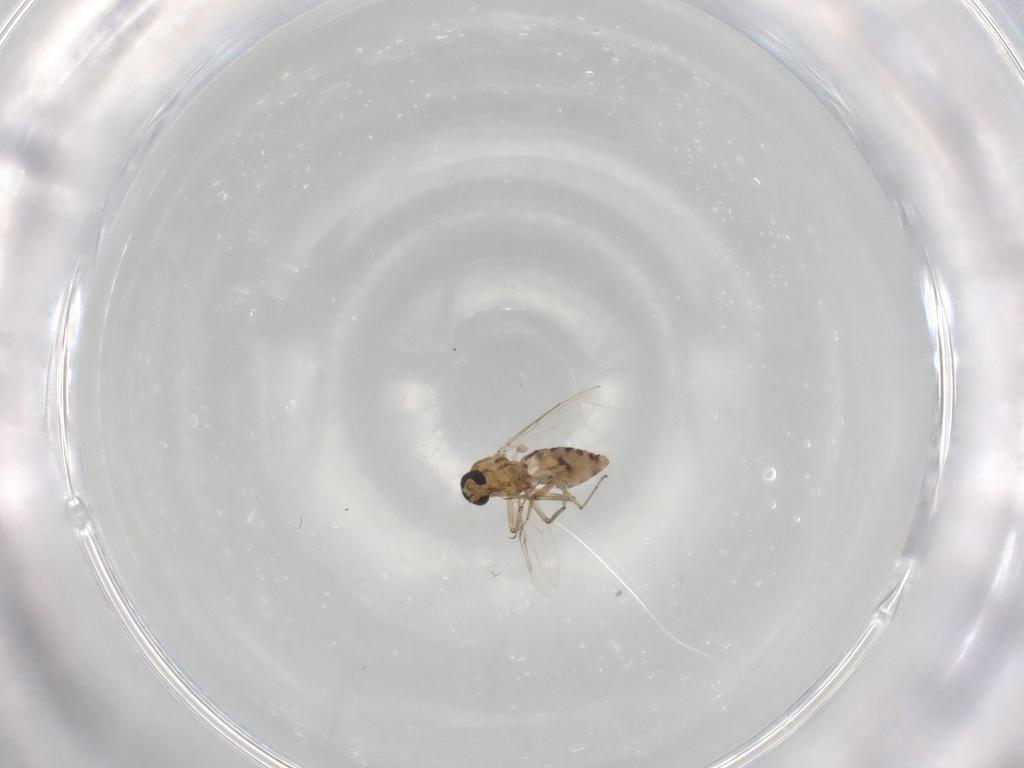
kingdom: Animalia
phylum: Arthropoda
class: Insecta
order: Diptera
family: Ceratopogonidae
